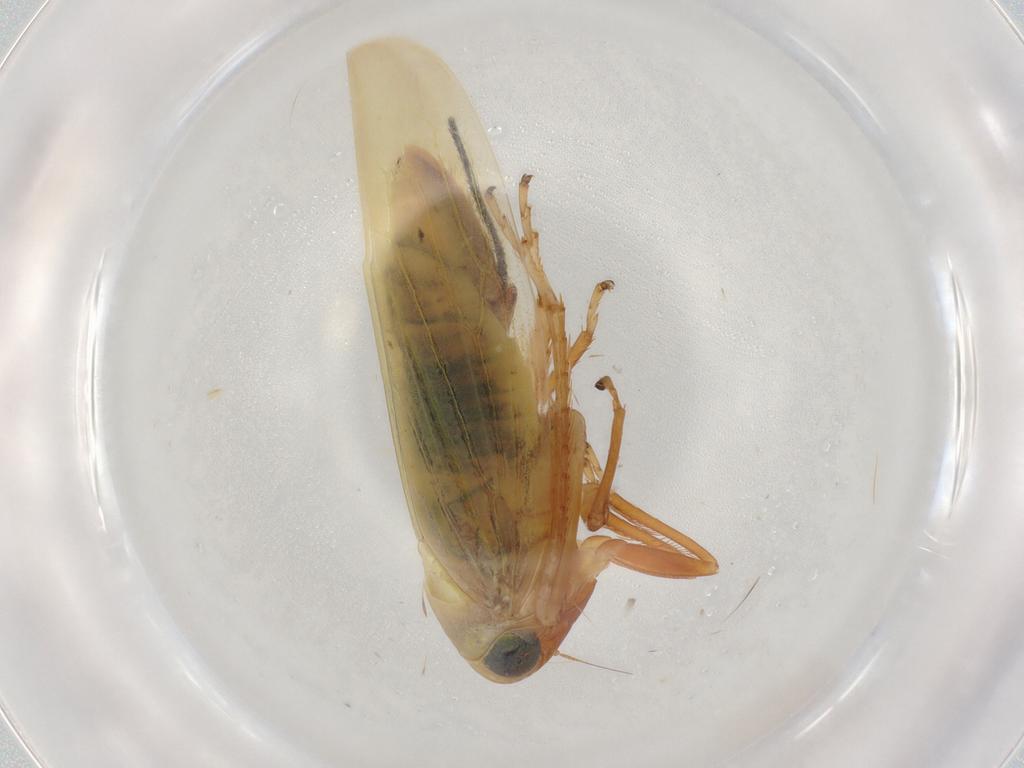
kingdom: Animalia
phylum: Arthropoda
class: Insecta
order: Hemiptera
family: Cicadellidae
